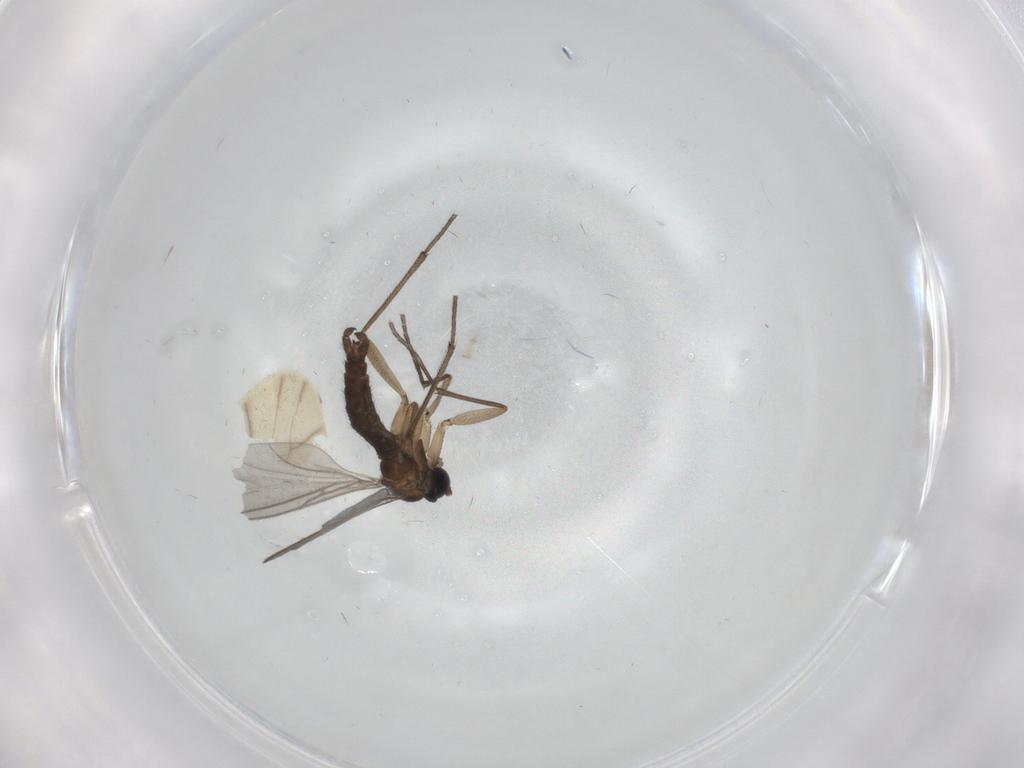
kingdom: Animalia
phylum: Arthropoda
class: Insecta
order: Diptera
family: Sciaridae
